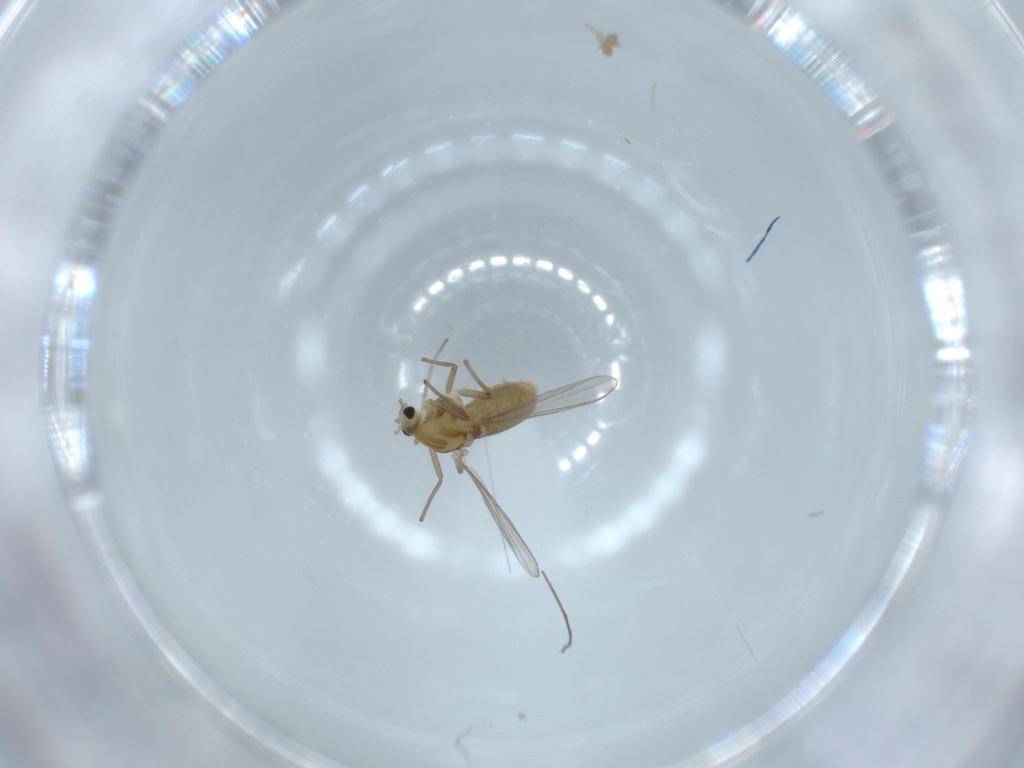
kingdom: Animalia
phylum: Arthropoda
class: Insecta
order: Diptera
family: Chironomidae
